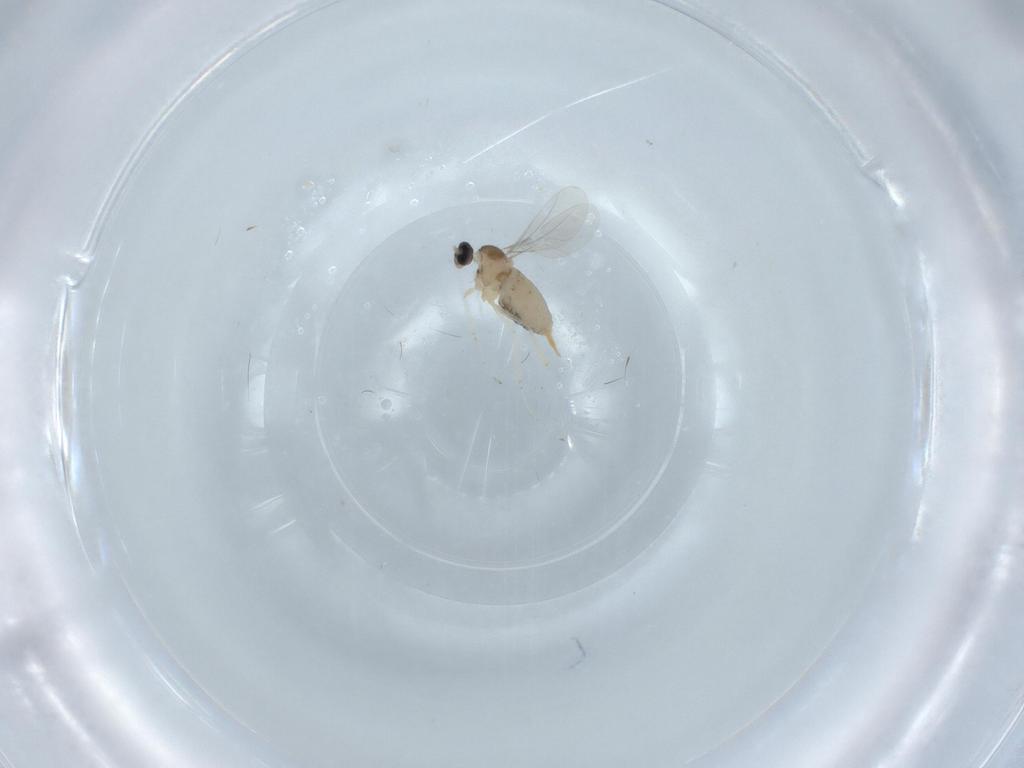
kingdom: Animalia
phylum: Arthropoda
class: Insecta
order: Diptera
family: Cecidomyiidae
